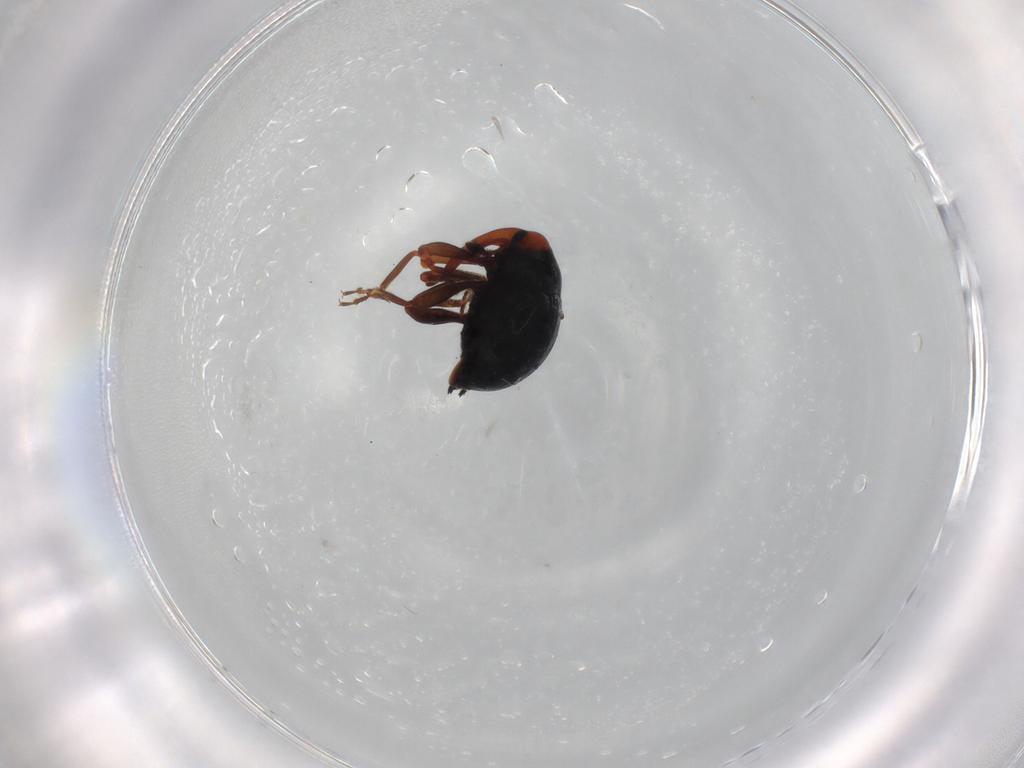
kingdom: Animalia
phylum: Arthropoda
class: Insecta
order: Coleoptera
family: Curculionidae
